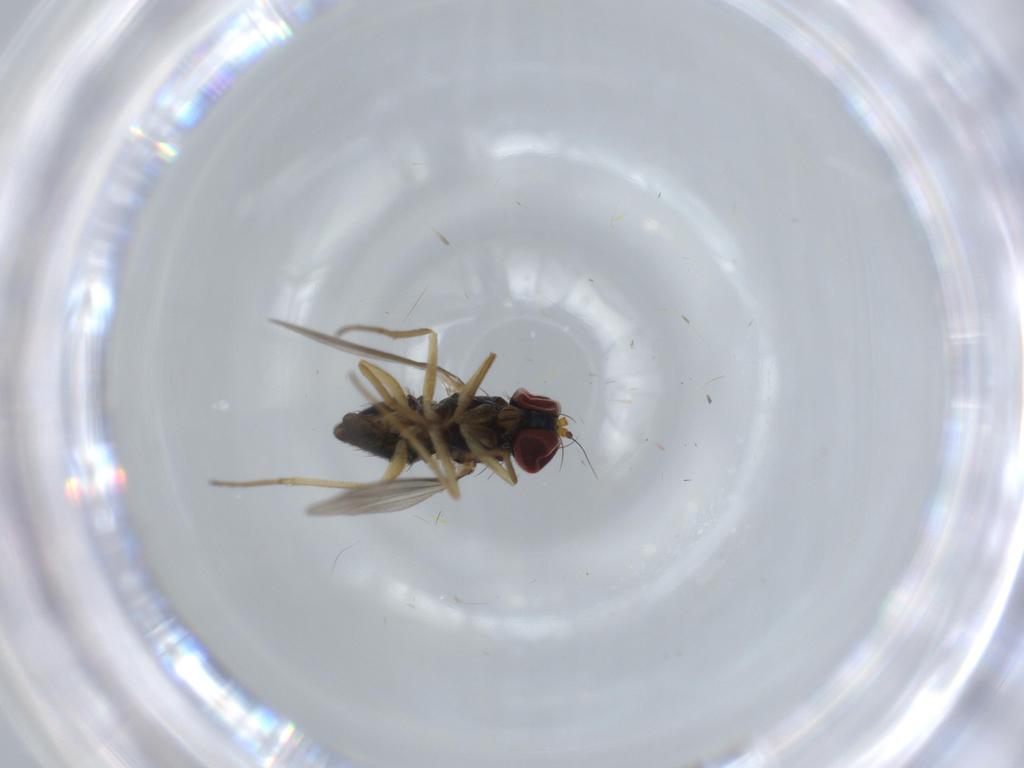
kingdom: Animalia
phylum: Arthropoda
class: Insecta
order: Diptera
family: Dolichopodidae
